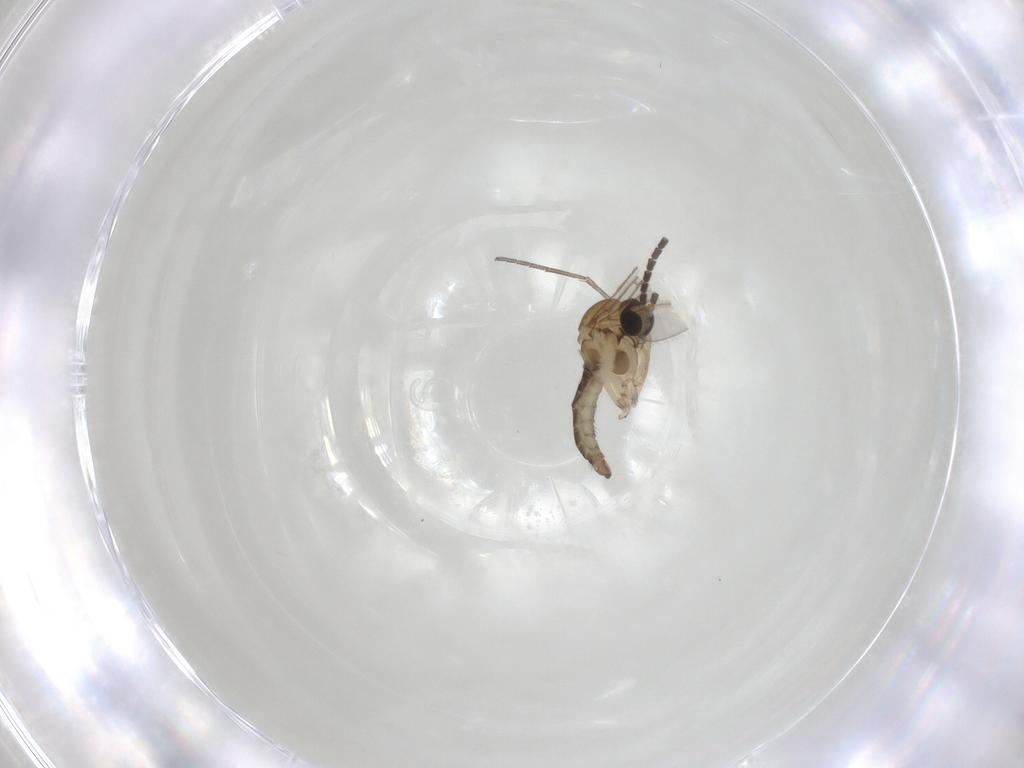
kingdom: Animalia
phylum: Arthropoda
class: Insecta
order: Diptera
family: Sciaridae
